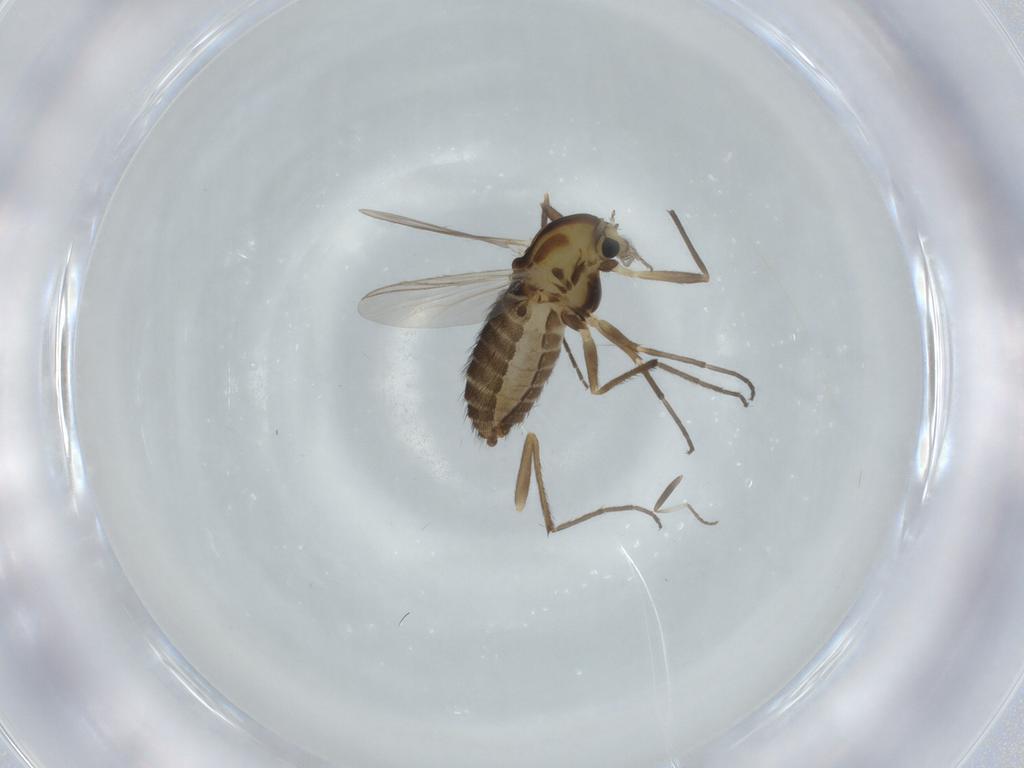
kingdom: Animalia
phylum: Arthropoda
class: Insecta
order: Diptera
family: Chironomidae
